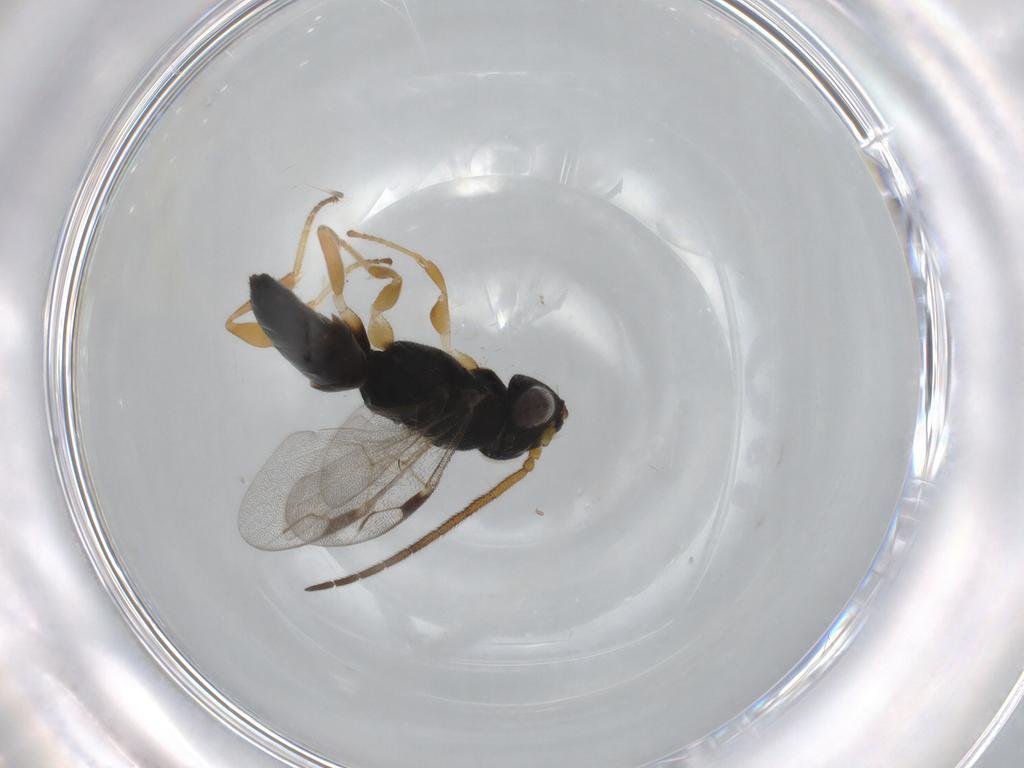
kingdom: Animalia
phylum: Arthropoda
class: Insecta
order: Hymenoptera
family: Dryinidae
